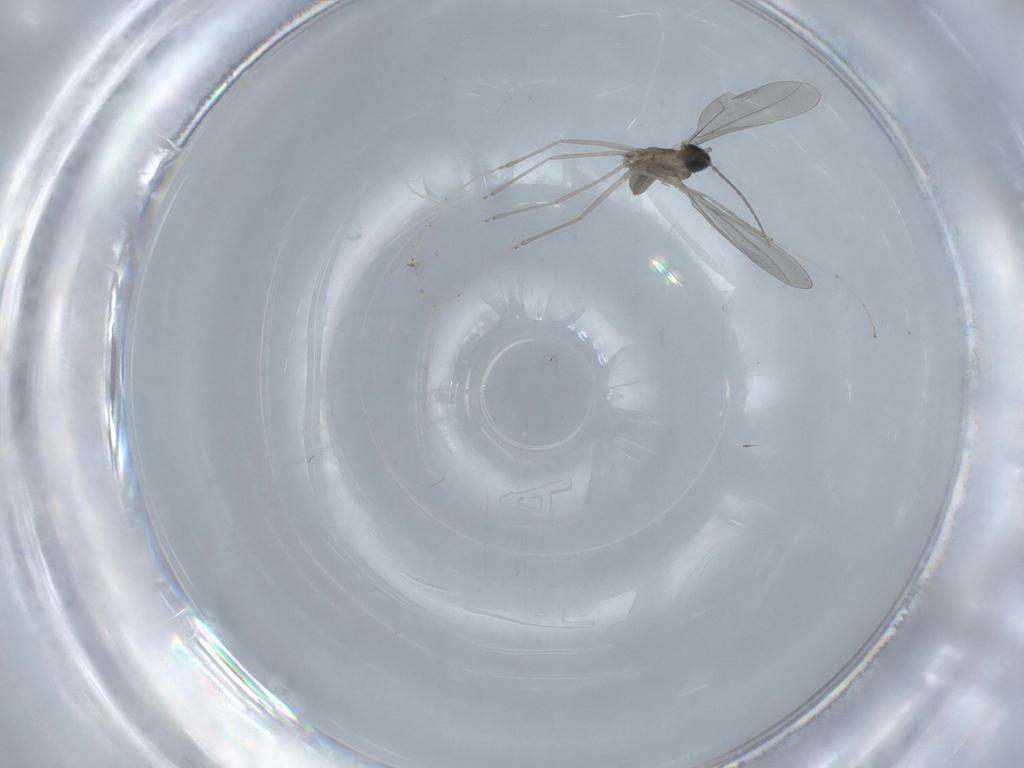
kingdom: Animalia
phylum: Arthropoda
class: Insecta
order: Diptera
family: Cecidomyiidae
